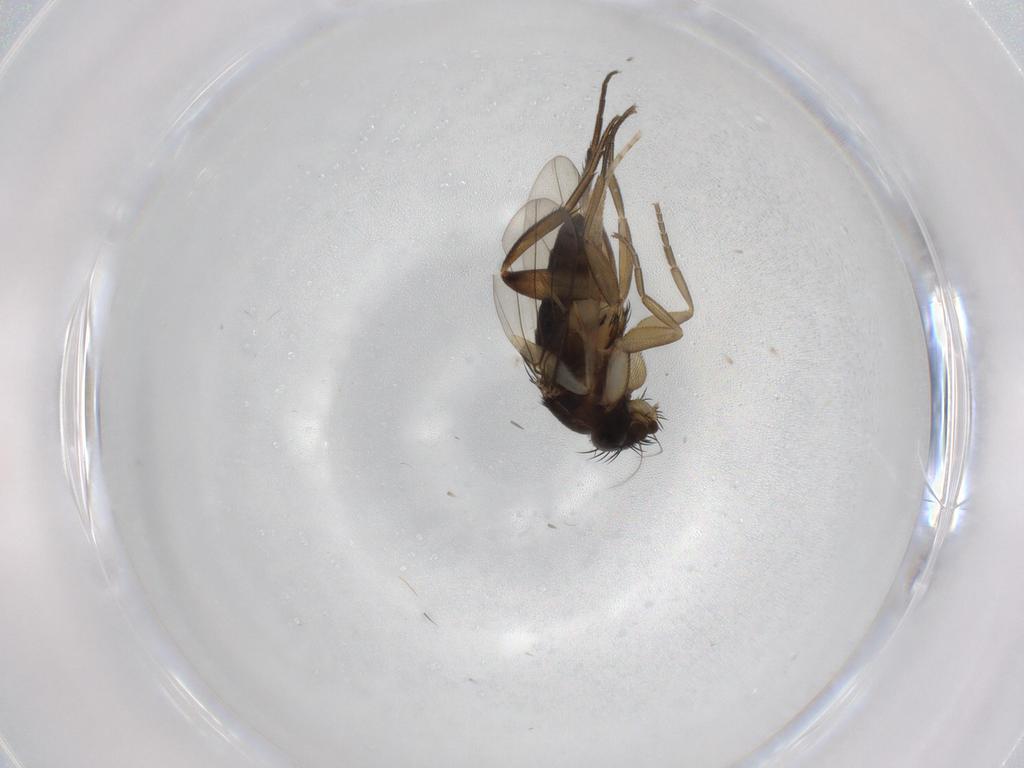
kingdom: Animalia
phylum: Arthropoda
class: Insecta
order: Diptera
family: Phoridae
